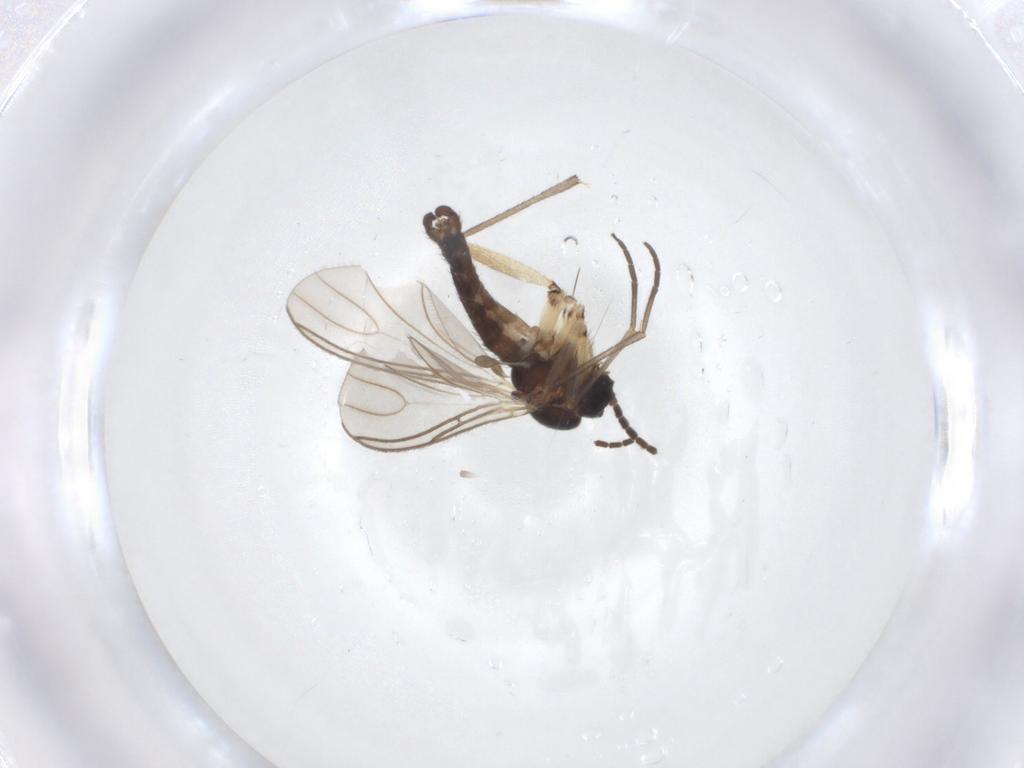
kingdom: Animalia
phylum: Arthropoda
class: Insecta
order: Diptera
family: Sciaridae
